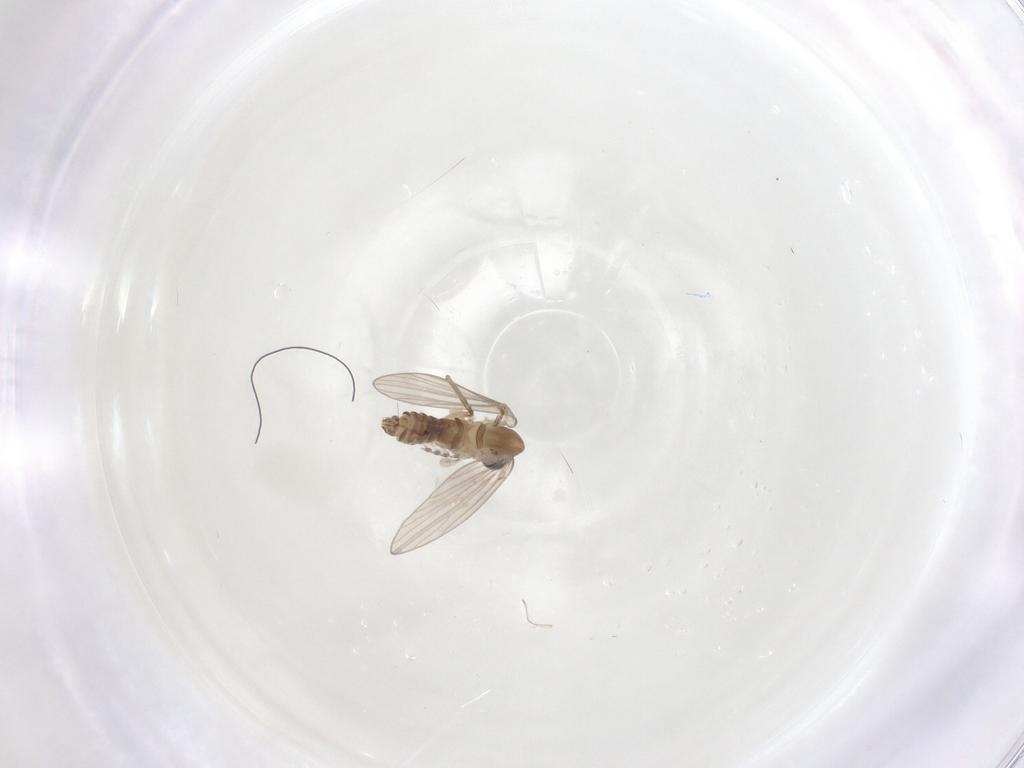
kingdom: Animalia
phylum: Arthropoda
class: Insecta
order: Diptera
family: Psychodidae
